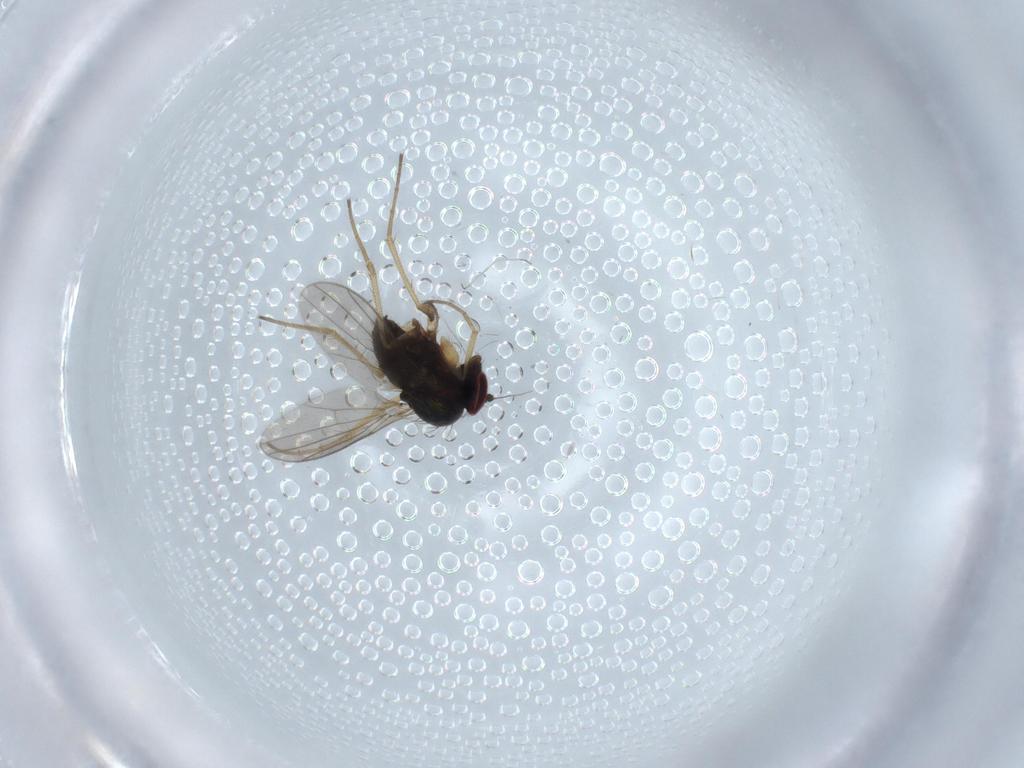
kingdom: Animalia
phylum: Arthropoda
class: Insecta
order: Diptera
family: Dolichopodidae
